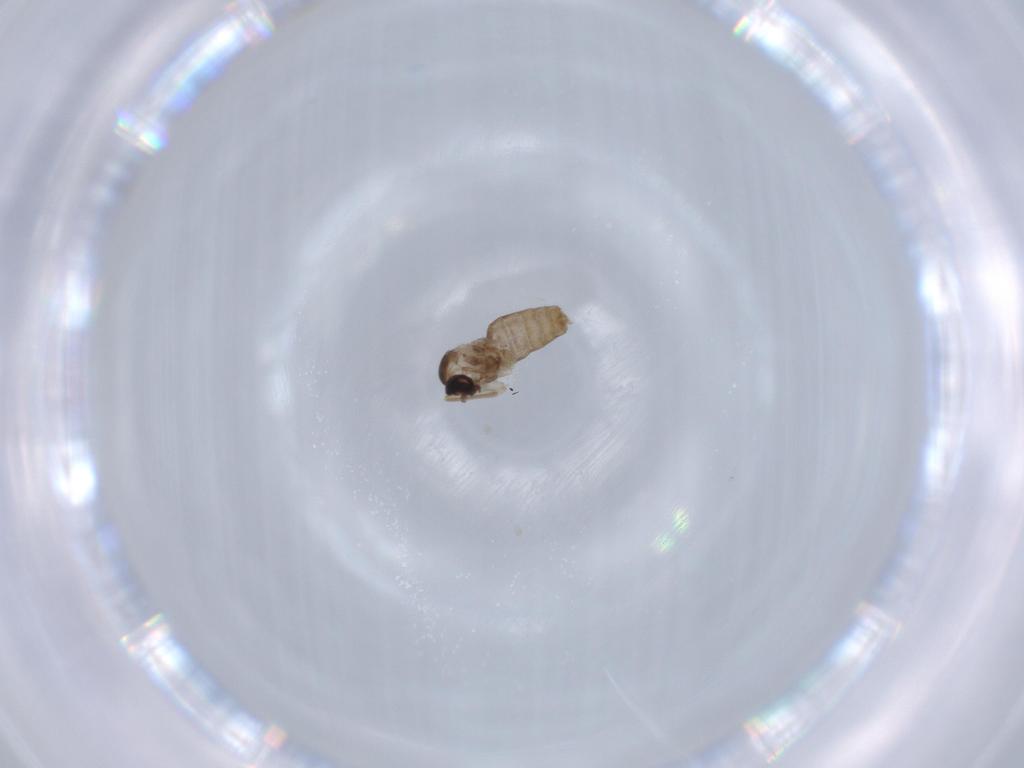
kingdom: Animalia
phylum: Arthropoda
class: Insecta
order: Diptera
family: Cecidomyiidae
